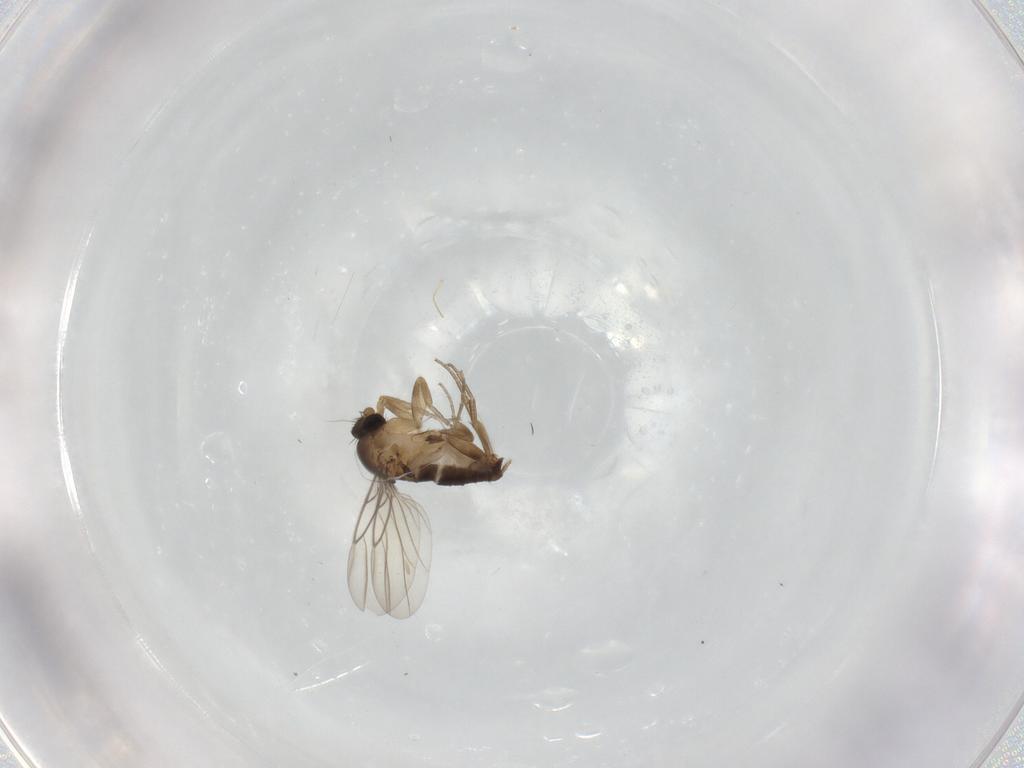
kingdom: Animalia
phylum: Arthropoda
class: Insecta
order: Diptera
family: Phoridae
